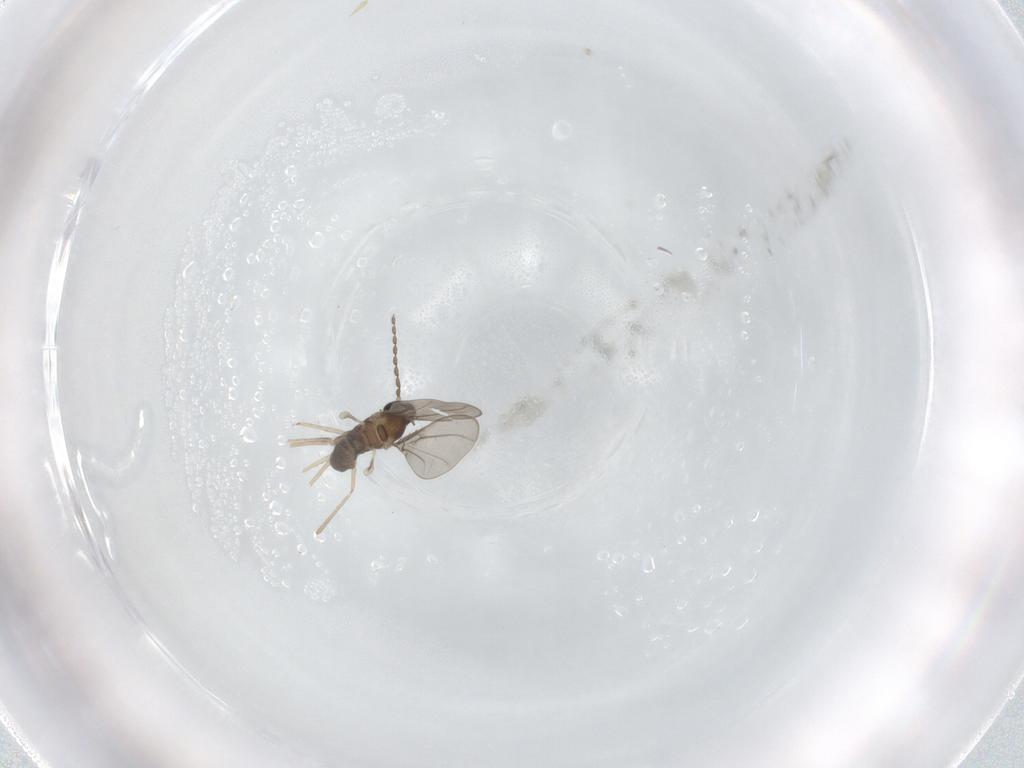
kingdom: Animalia
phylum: Arthropoda
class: Insecta
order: Diptera
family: Cecidomyiidae
